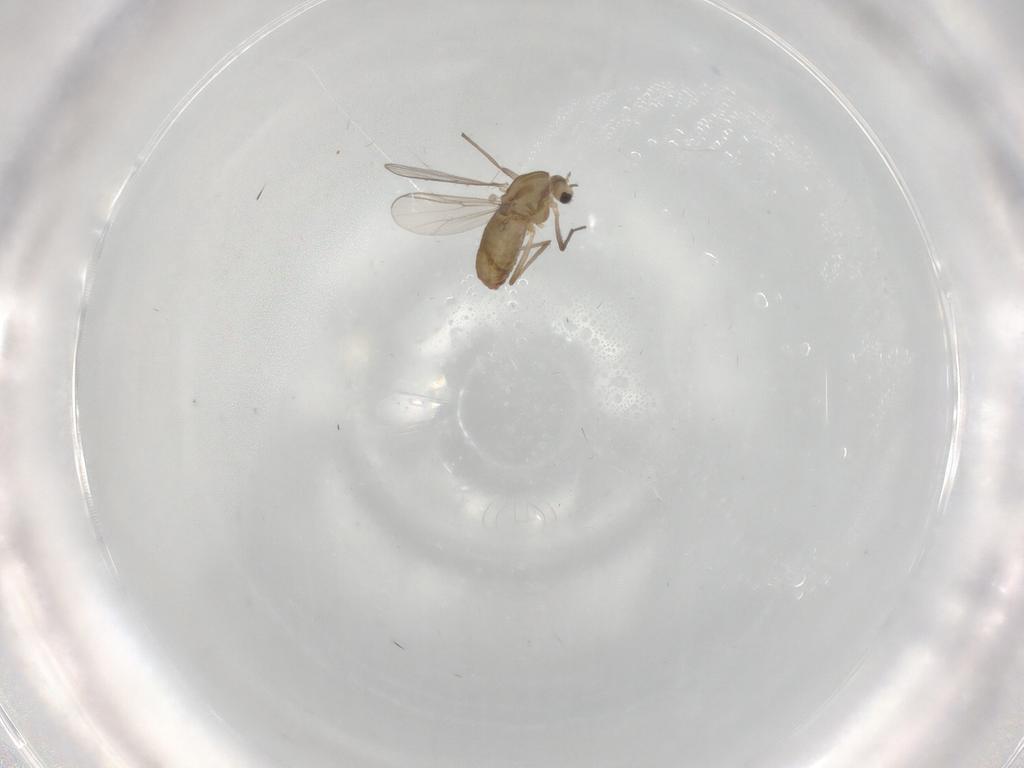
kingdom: Animalia
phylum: Arthropoda
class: Insecta
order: Diptera
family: Chironomidae
